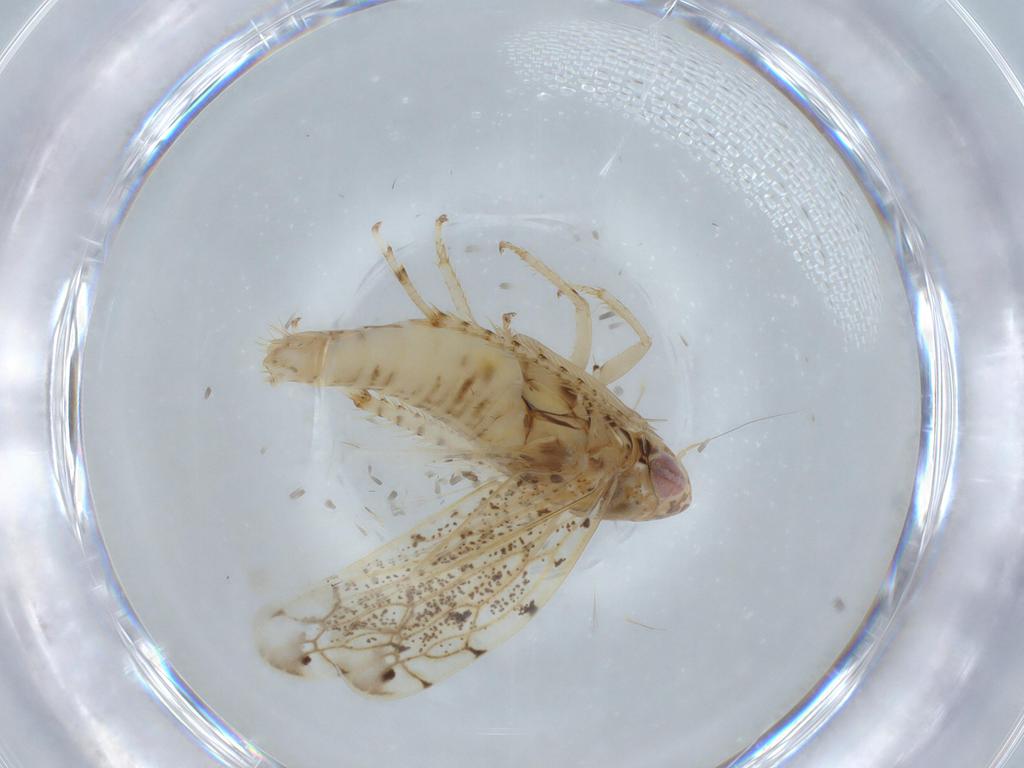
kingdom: Animalia
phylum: Arthropoda
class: Insecta
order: Hemiptera
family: Cicadellidae
